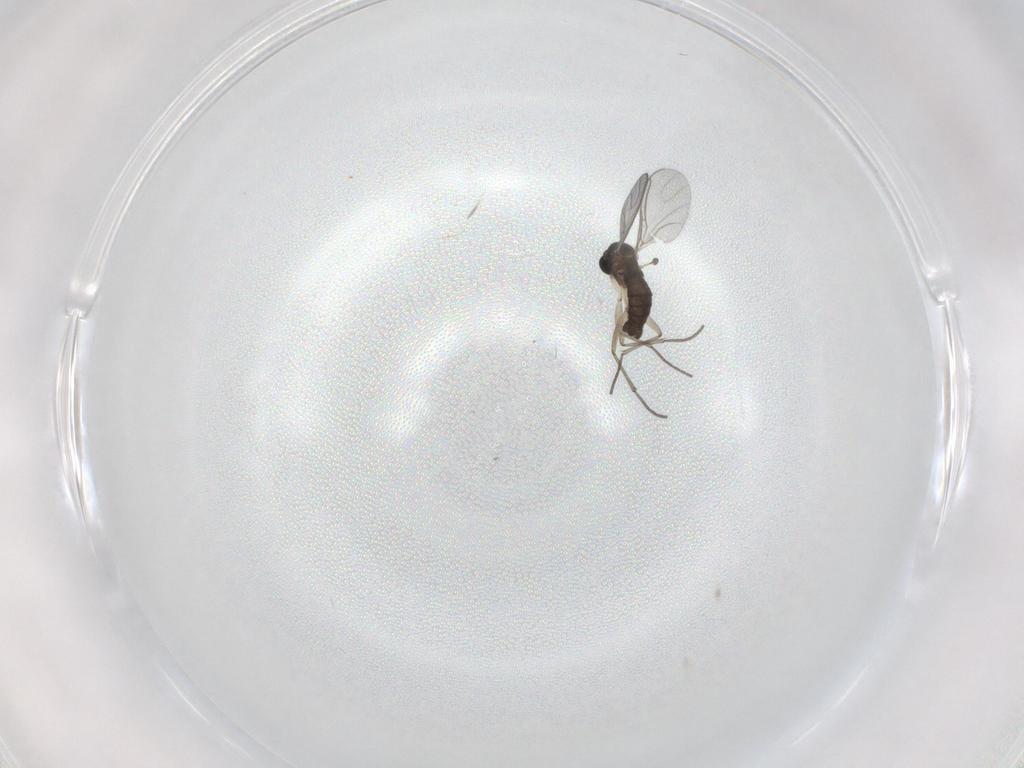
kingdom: Animalia
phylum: Arthropoda
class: Insecta
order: Diptera
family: Sciaridae
